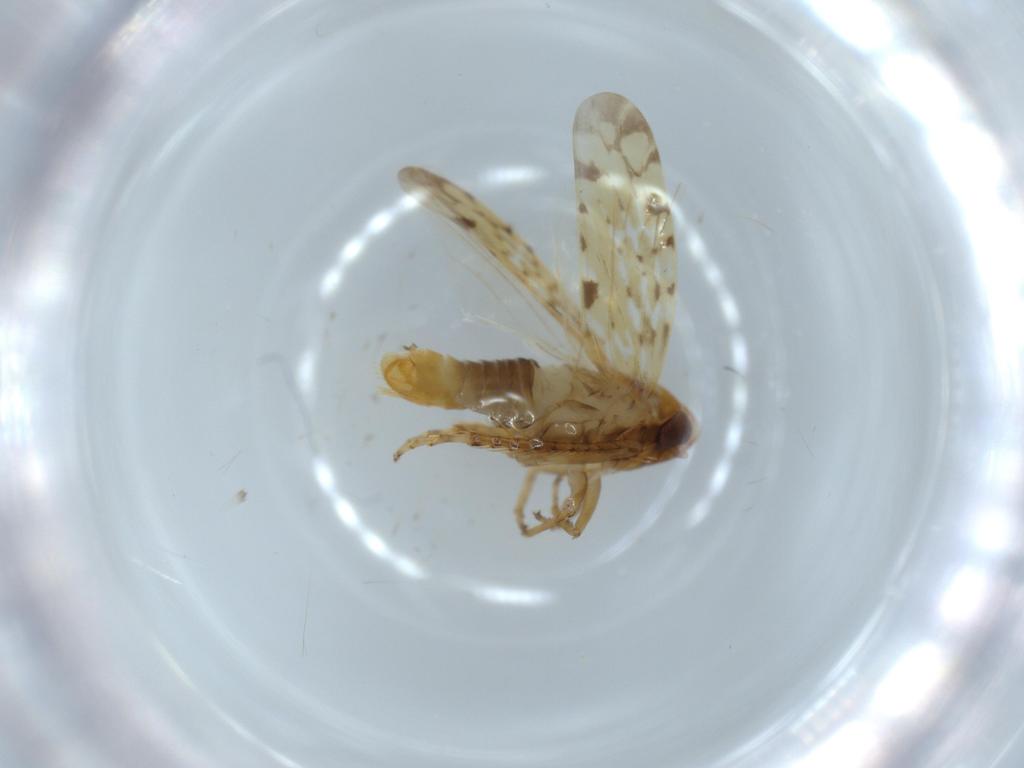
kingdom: Animalia
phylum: Arthropoda
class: Insecta
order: Hemiptera
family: Cicadellidae
